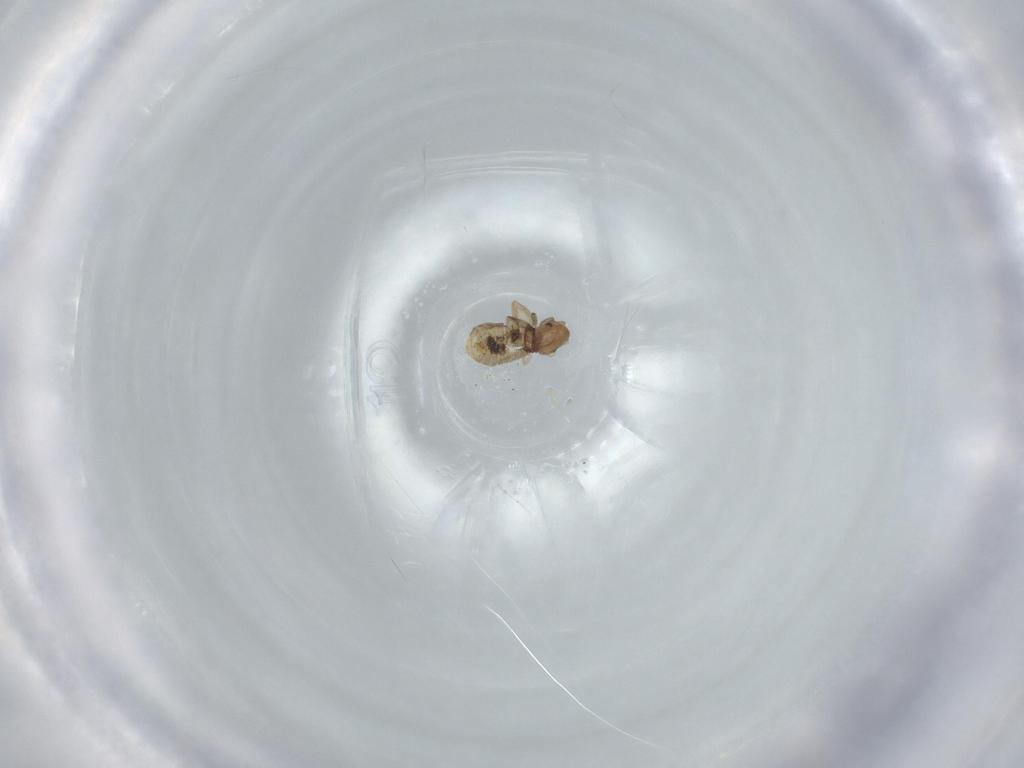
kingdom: Animalia
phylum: Arthropoda
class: Insecta
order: Psocodea
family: Liposcelididae
